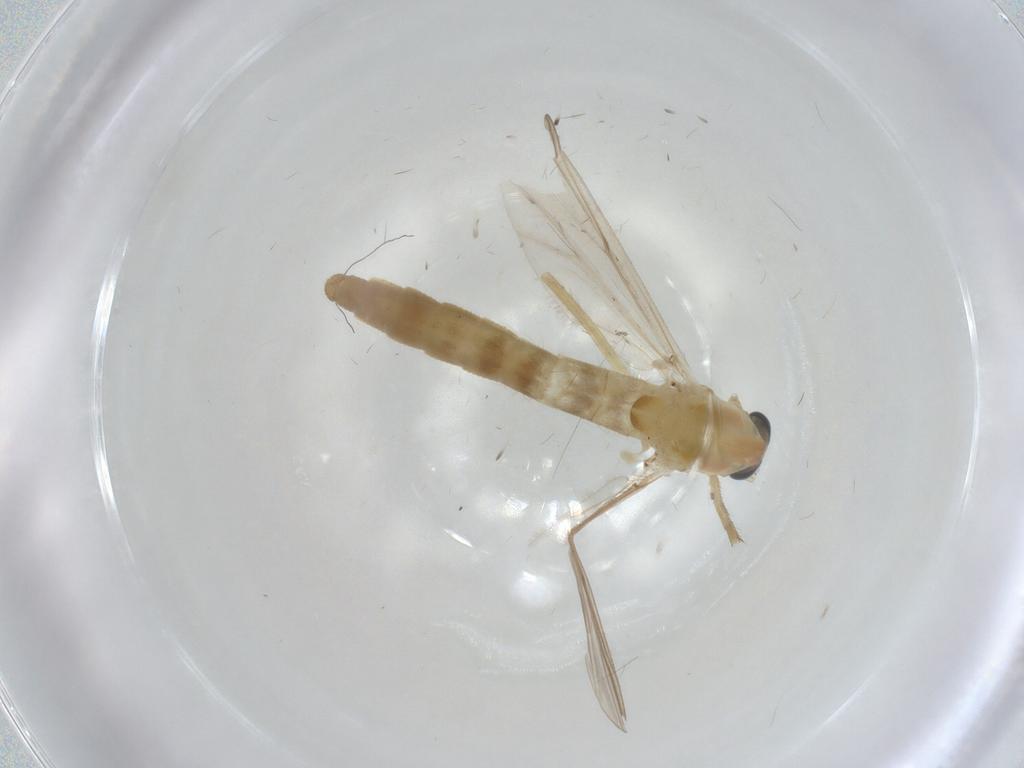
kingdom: Animalia
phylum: Arthropoda
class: Insecta
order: Diptera
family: Chironomidae
